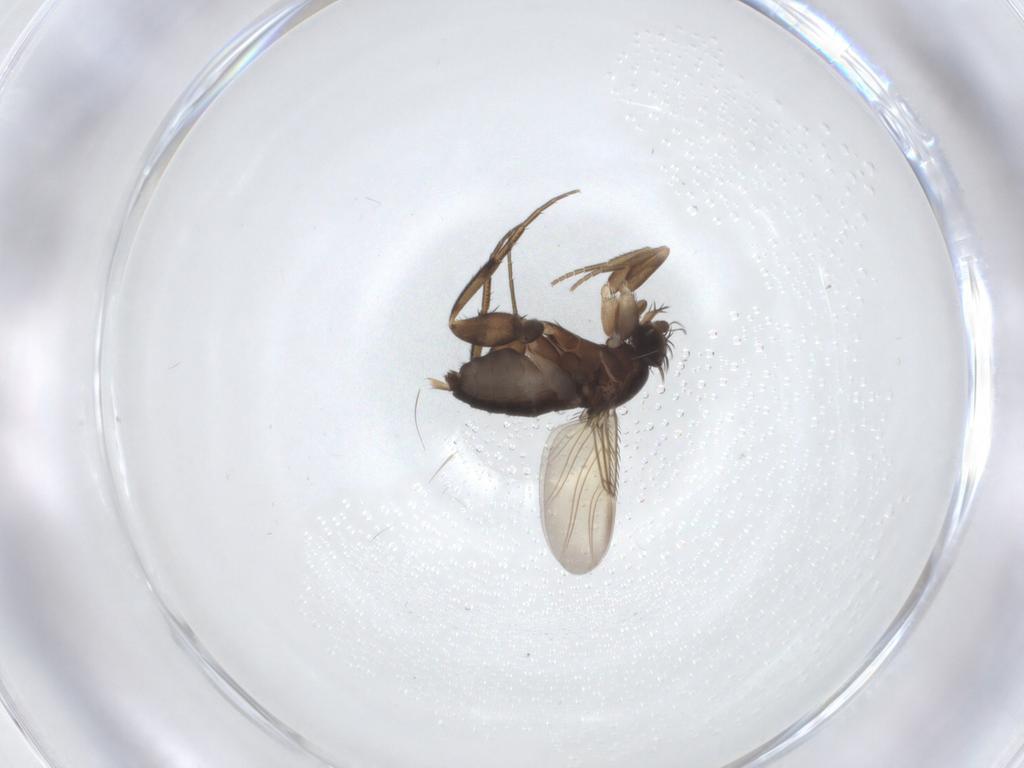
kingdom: Animalia
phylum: Arthropoda
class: Insecta
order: Diptera
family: Phoridae
